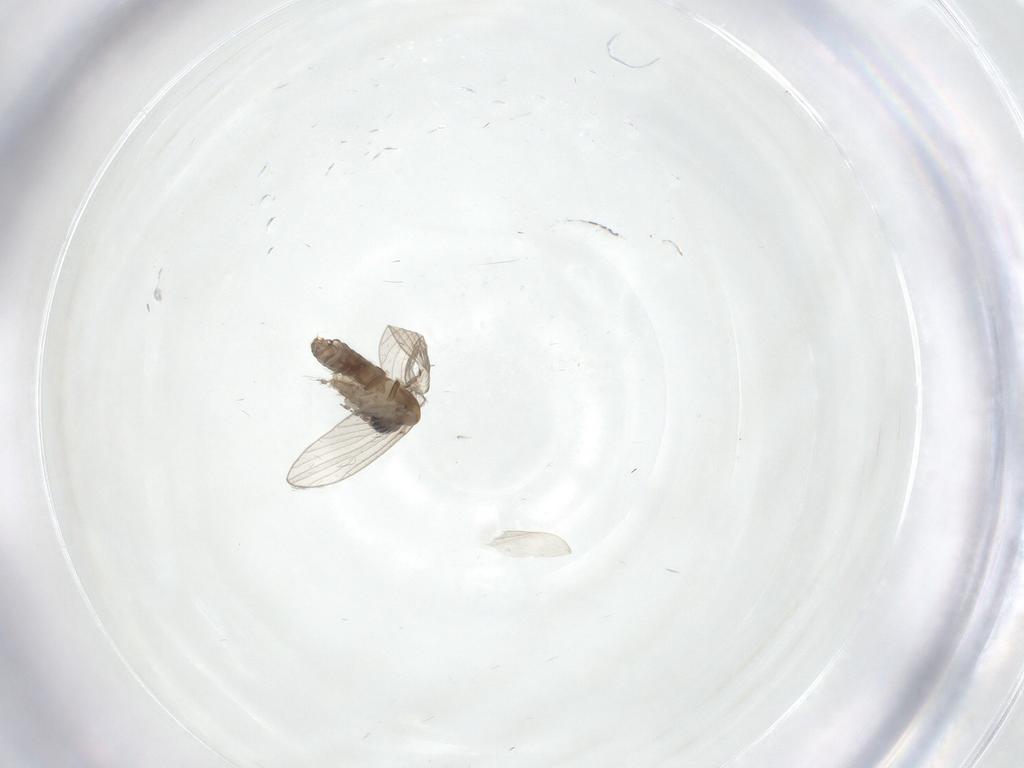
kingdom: Animalia
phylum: Arthropoda
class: Insecta
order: Diptera
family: Psychodidae
